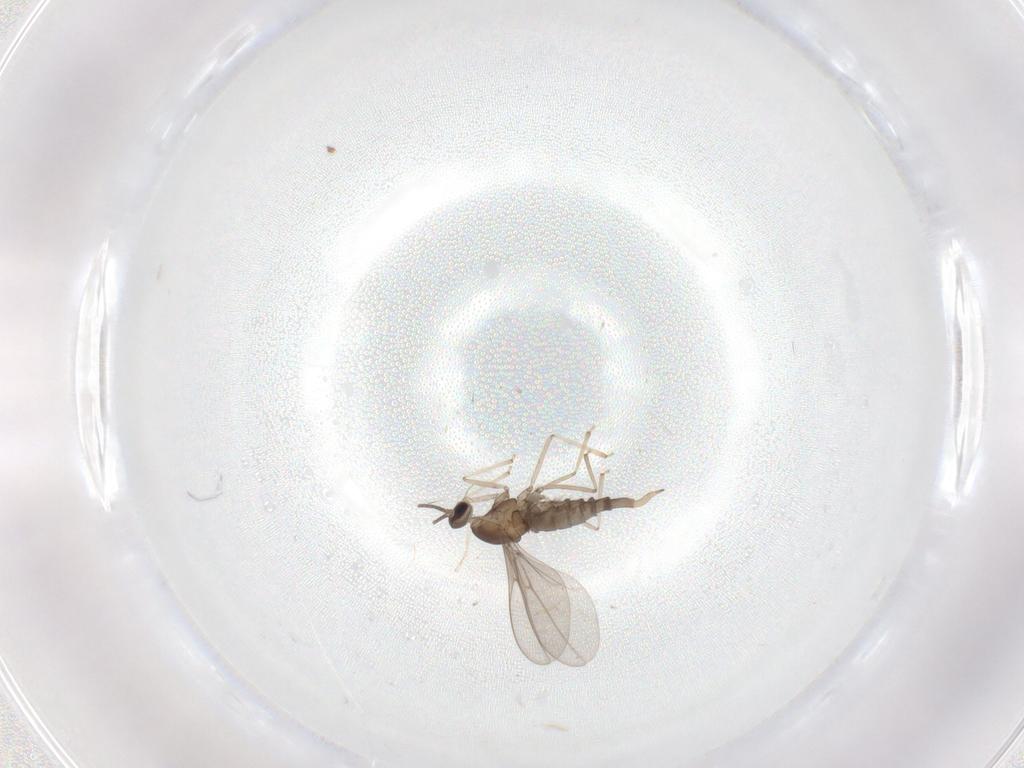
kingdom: Animalia
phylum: Arthropoda
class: Insecta
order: Diptera
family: Cecidomyiidae
